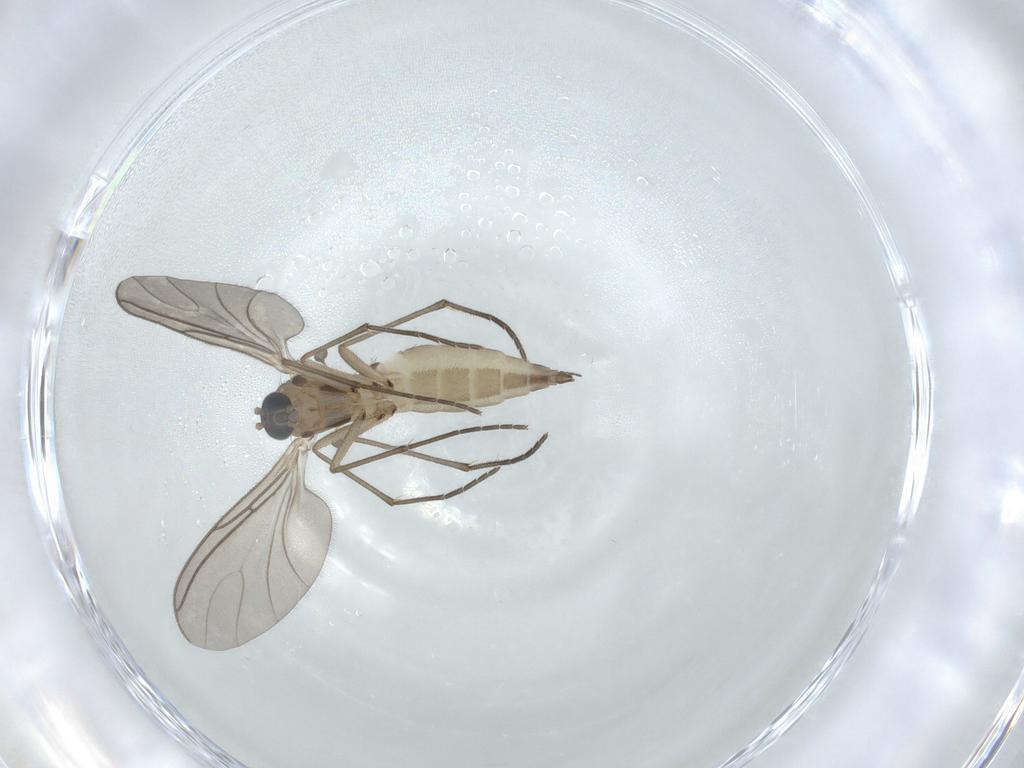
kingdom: Animalia
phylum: Arthropoda
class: Insecta
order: Diptera
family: Sciaridae
